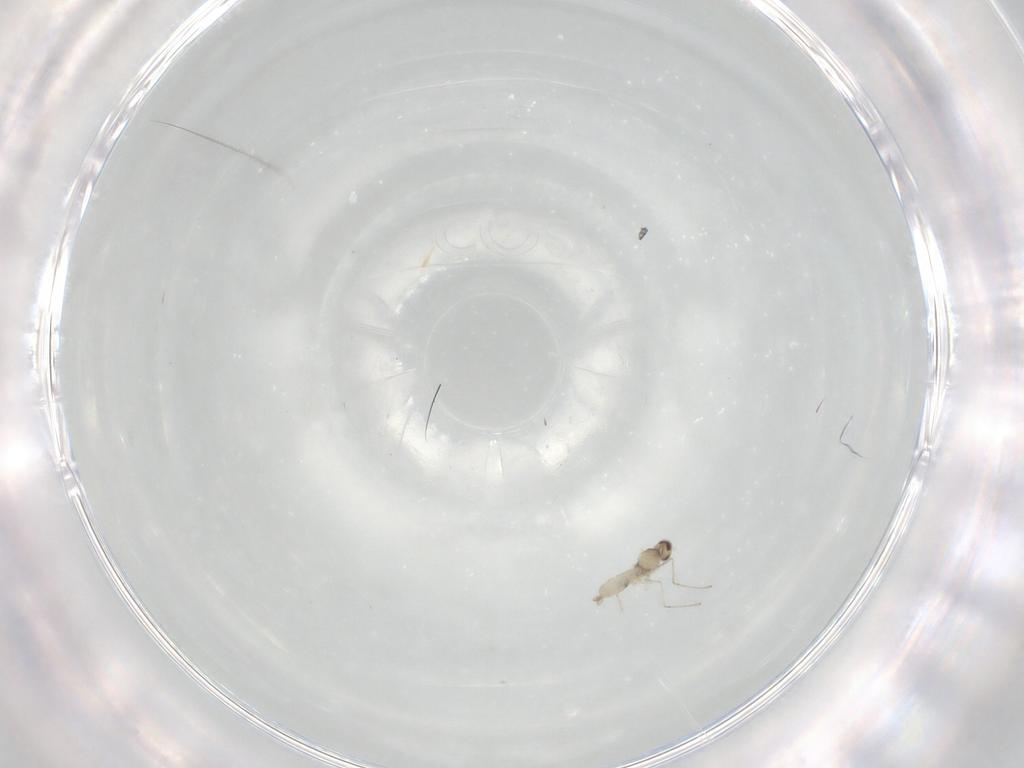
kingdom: Animalia
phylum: Arthropoda
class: Insecta
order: Diptera
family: Cecidomyiidae
